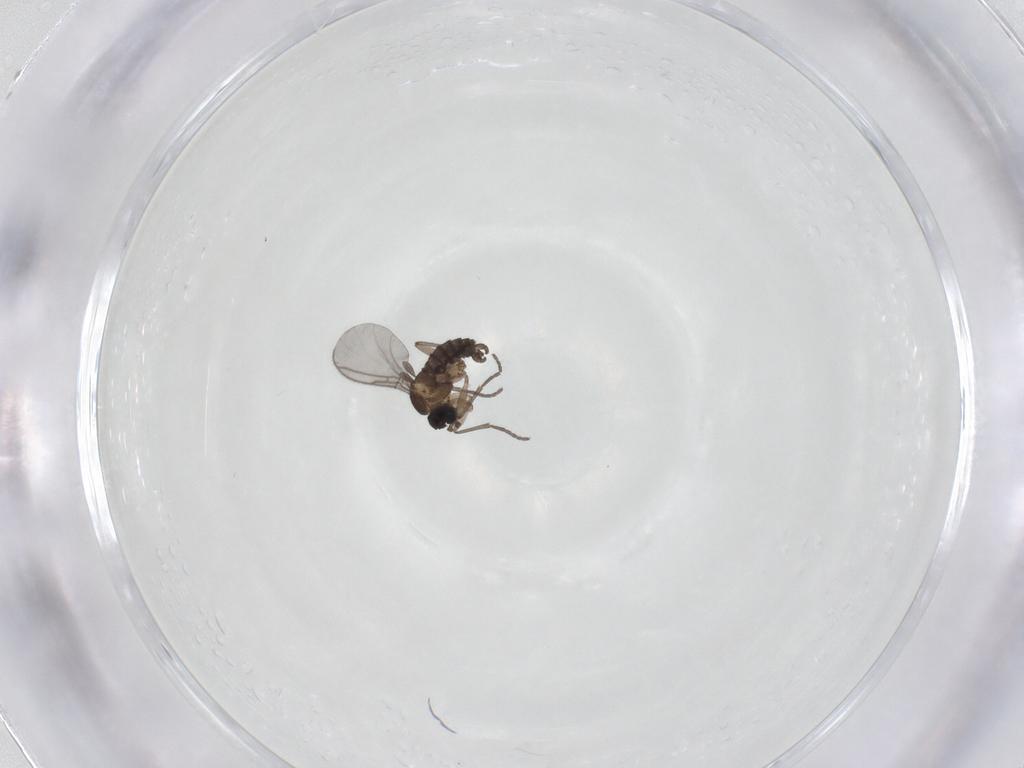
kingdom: Animalia
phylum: Arthropoda
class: Insecta
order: Diptera
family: Sciaridae
